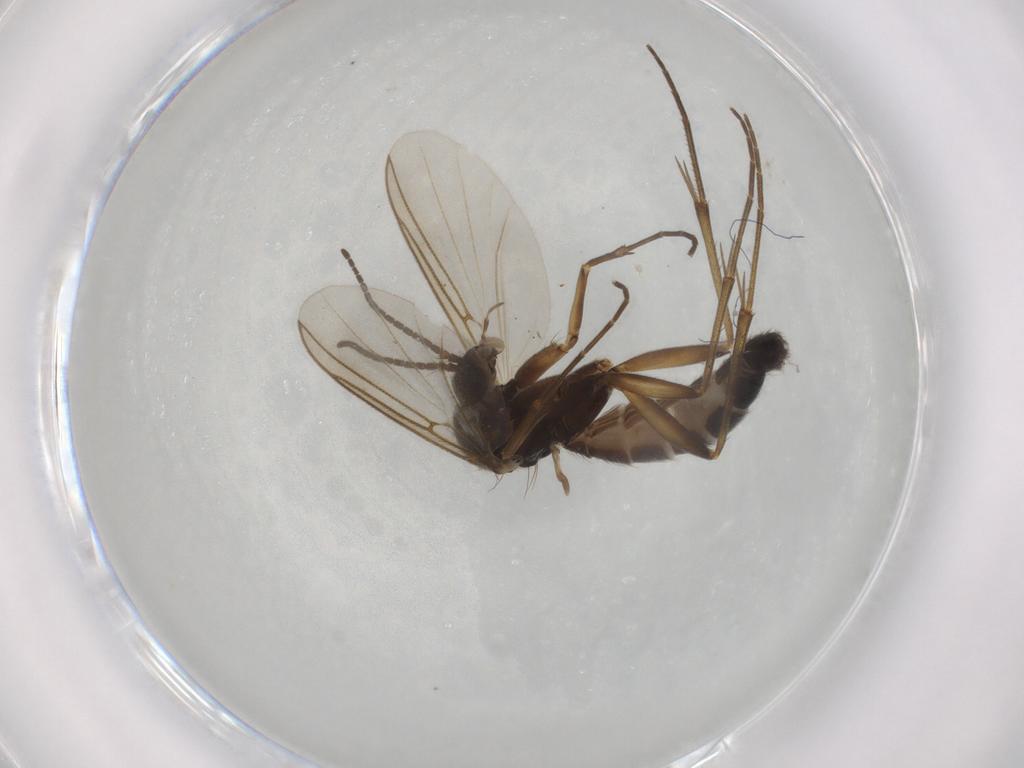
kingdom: Animalia
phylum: Arthropoda
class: Insecta
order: Diptera
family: Mycetophilidae
